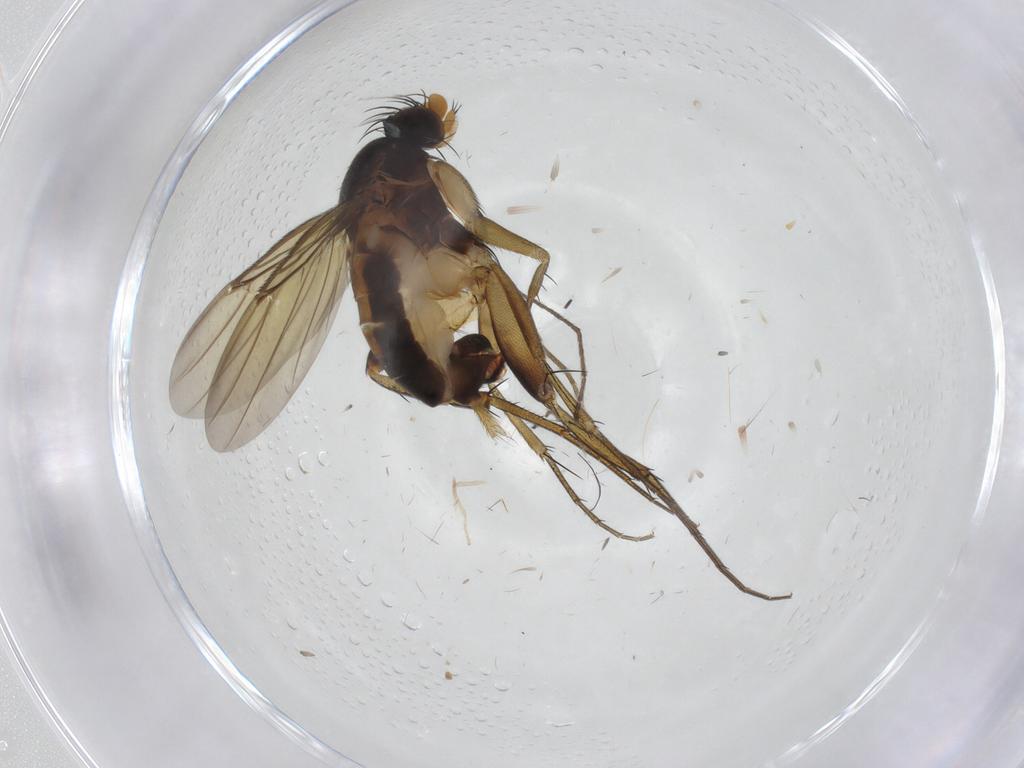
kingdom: Animalia
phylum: Arthropoda
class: Insecta
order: Diptera
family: Phoridae
